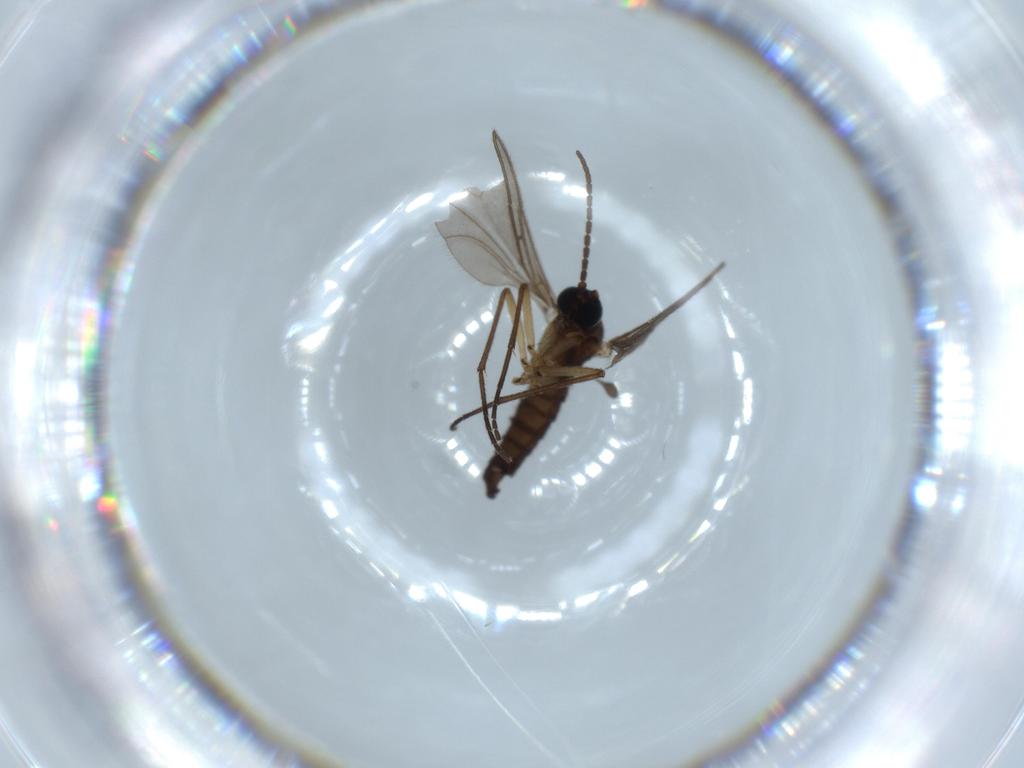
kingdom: Animalia
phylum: Arthropoda
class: Insecta
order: Diptera
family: Sciaridae
